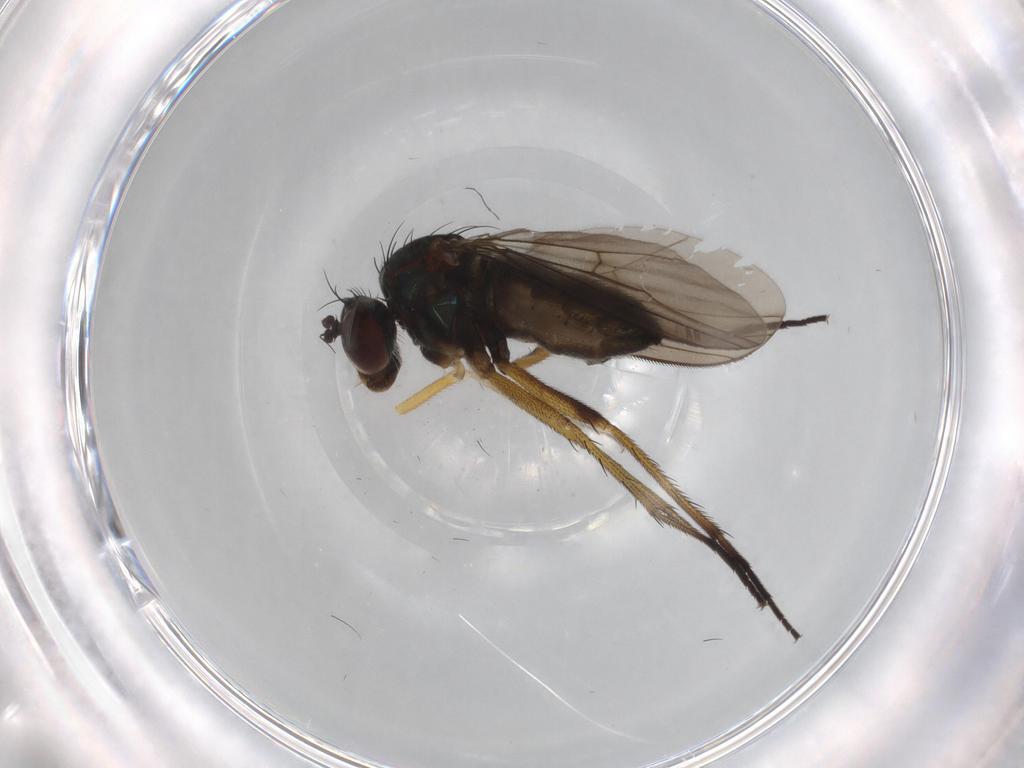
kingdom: Animalia
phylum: Arthropoda
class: Insecta
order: Diptera
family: Dolichopodidae
